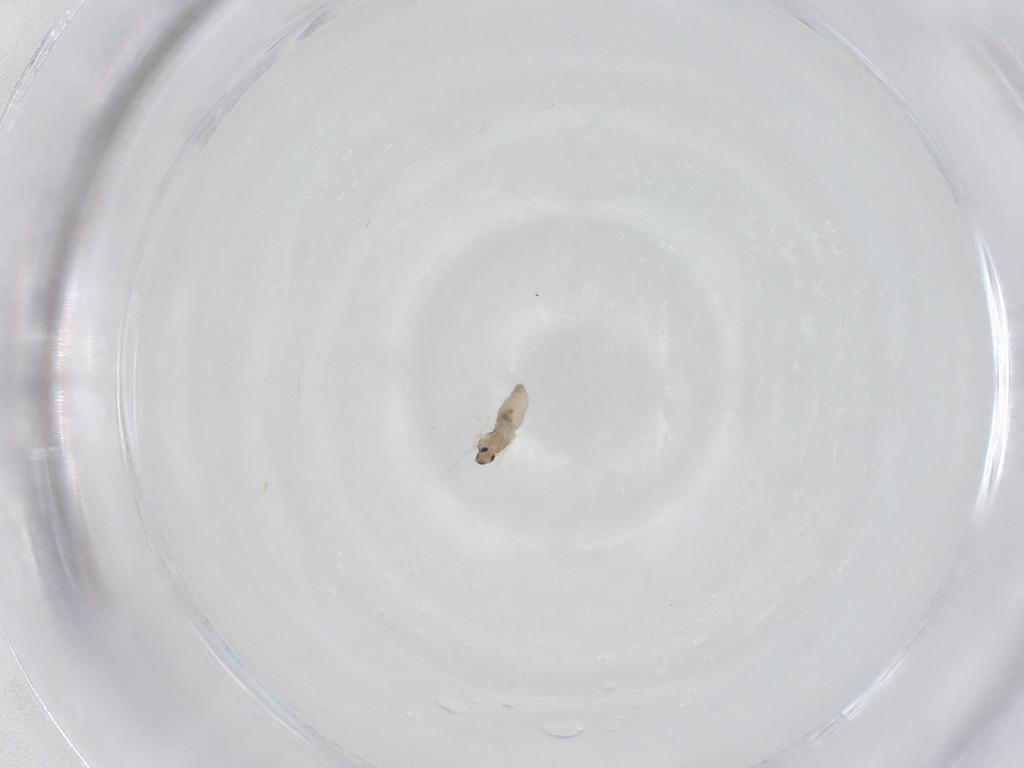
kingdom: Animalia
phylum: Arthropoda
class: Insecta
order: Diptera
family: Cecidomyiidae
